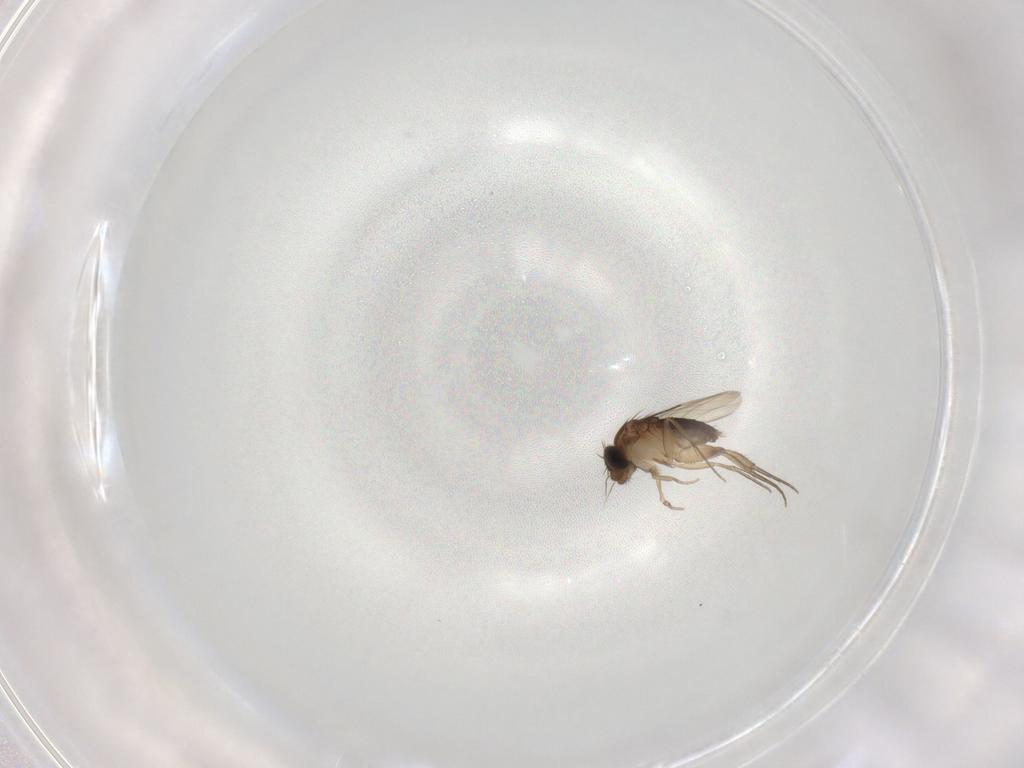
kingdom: Animalia
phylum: Arthropoda
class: Insecta
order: Diptera
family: Phoridae
